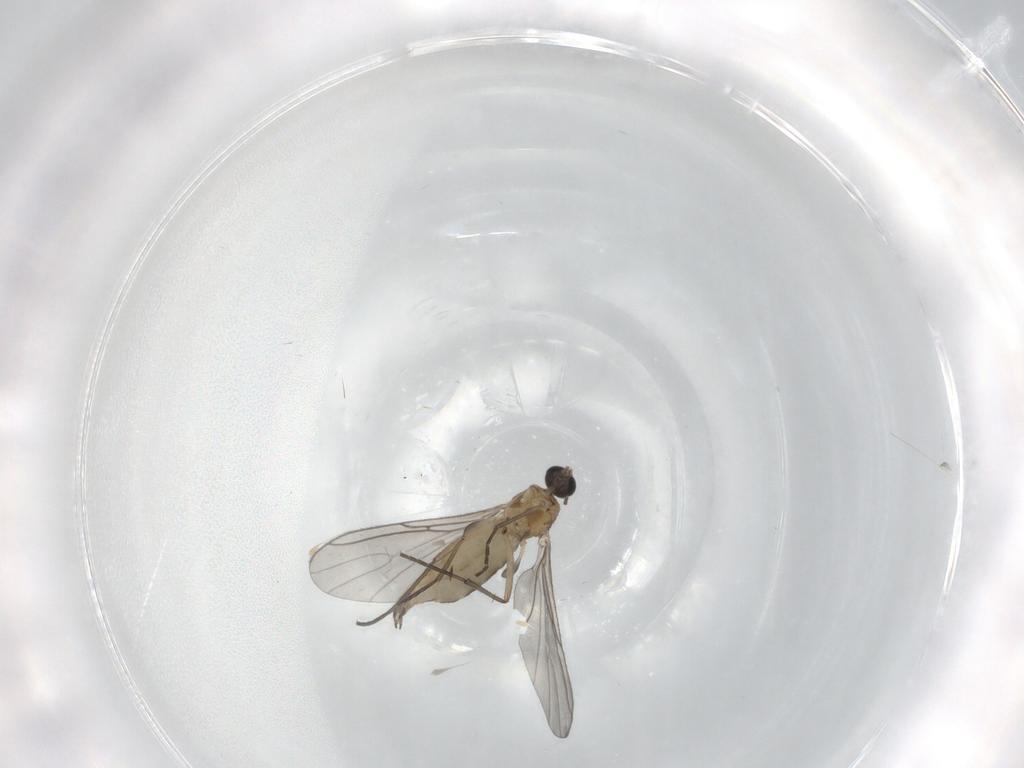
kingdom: Animalia
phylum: Arthropoda
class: Insecta
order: Diptera
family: Sciaridae
